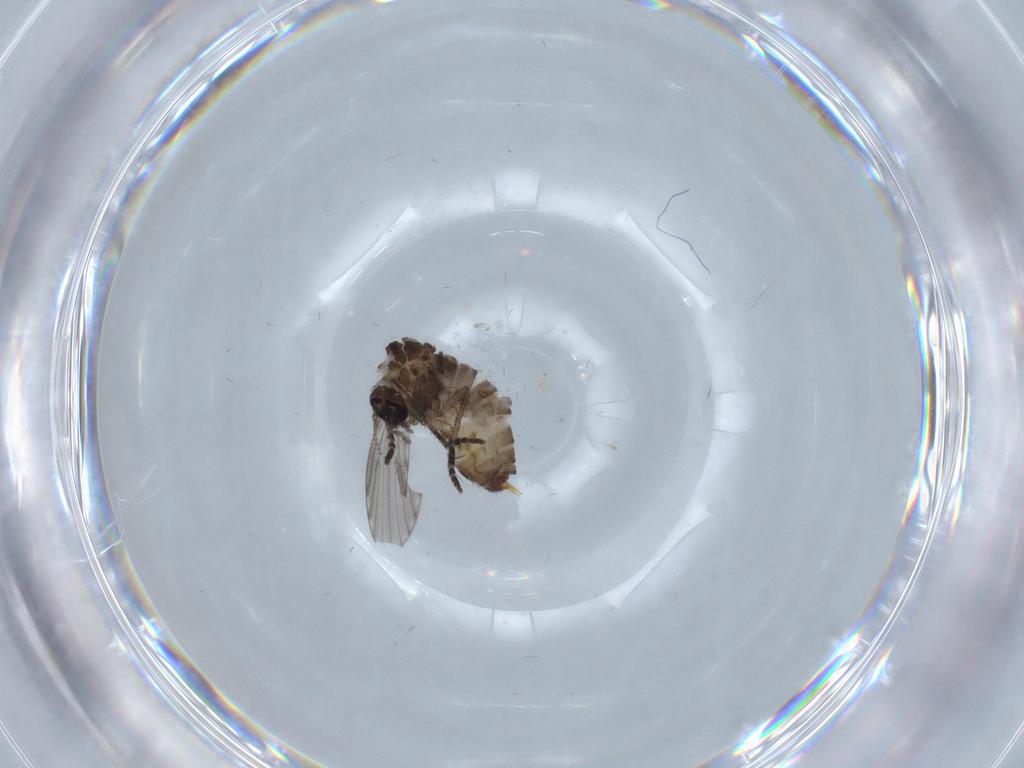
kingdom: Animalia
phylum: Arthropoda
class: Insecta
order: Diptera
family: Psychodidae
